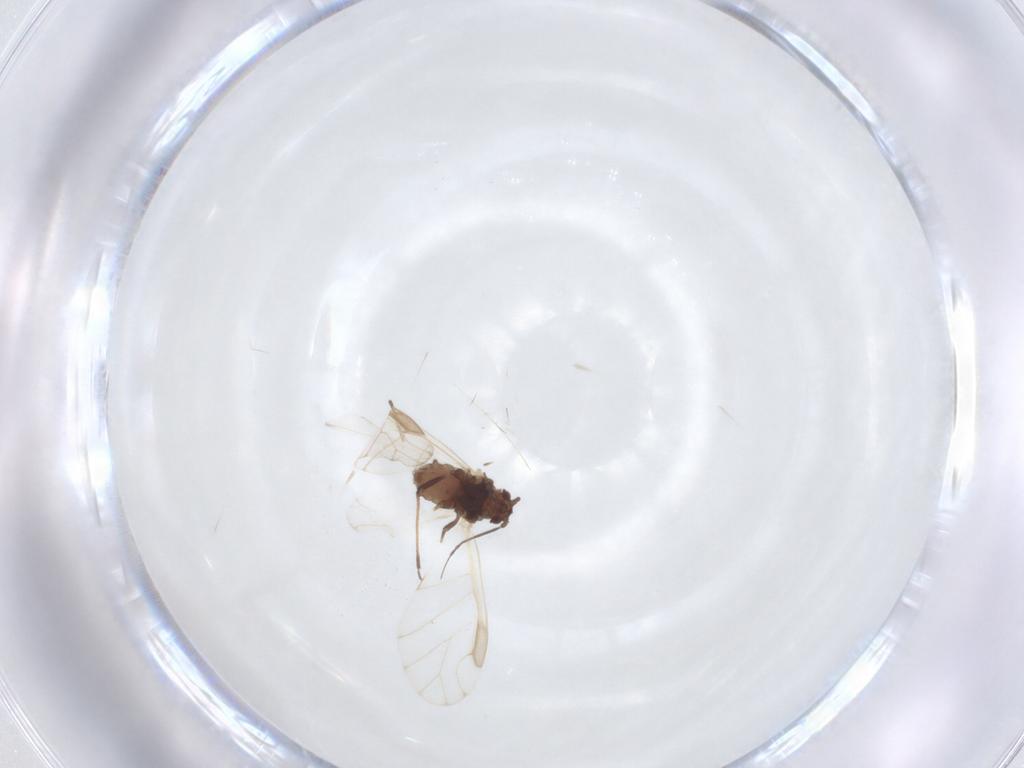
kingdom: Animalia
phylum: Arthropoda
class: Insecta
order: Hemiptera
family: Aphididae
